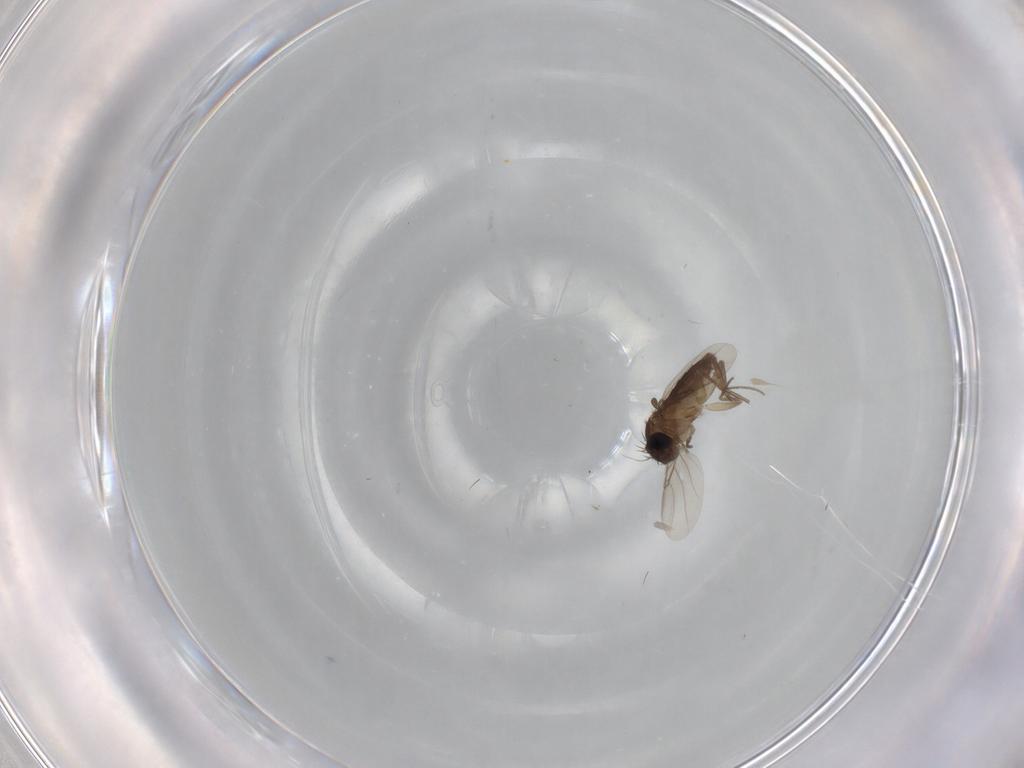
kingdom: Animalia
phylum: Arthropoda
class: Insecta
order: Diptera
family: Phoridae
